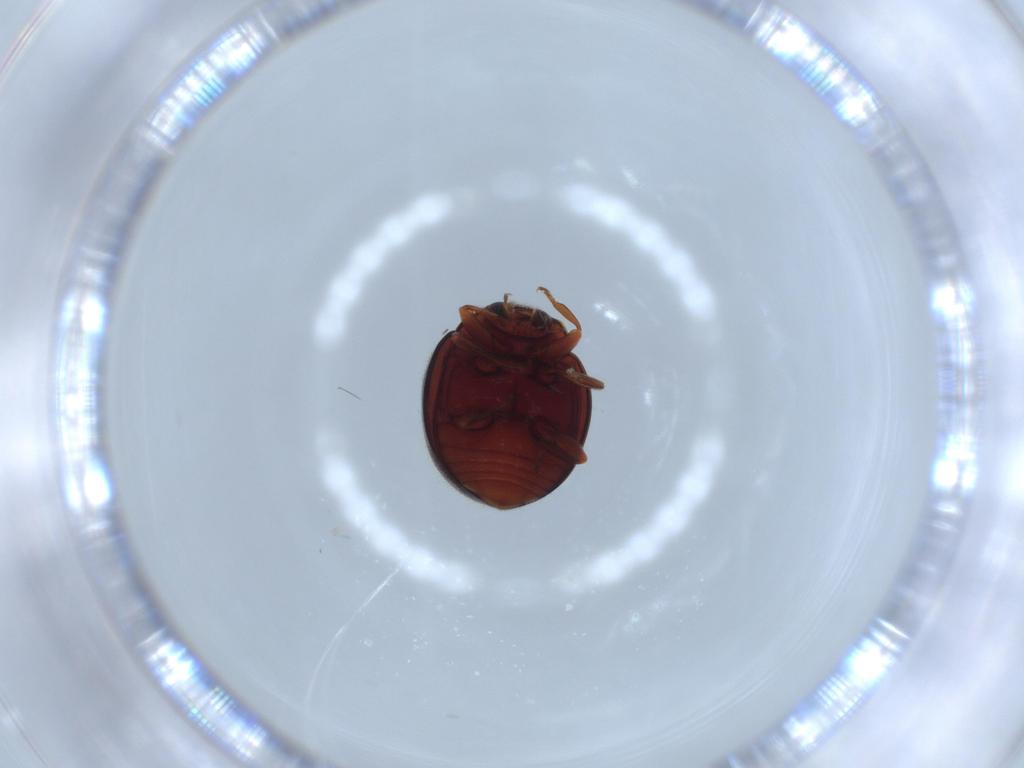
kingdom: Animalia
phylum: Arthropoda
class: Insecta
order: Coleoptera
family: Coccinellidae
